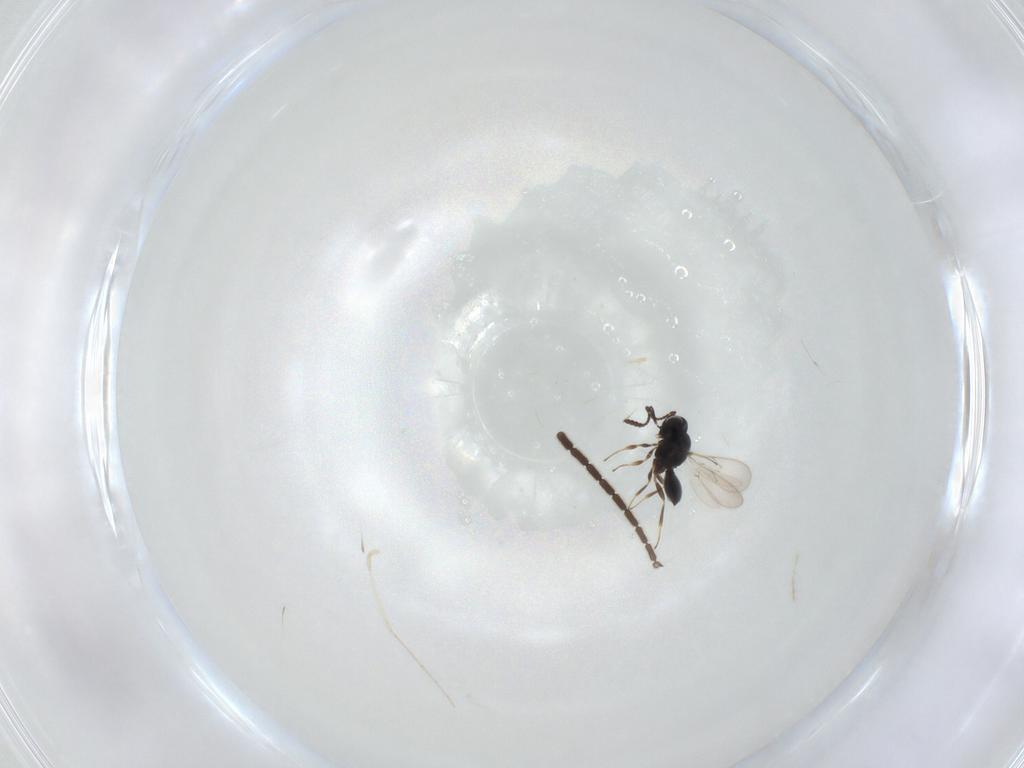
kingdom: Animalia
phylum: Arthropoda
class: Insecta
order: Hymenoptera
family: Scelionidae
